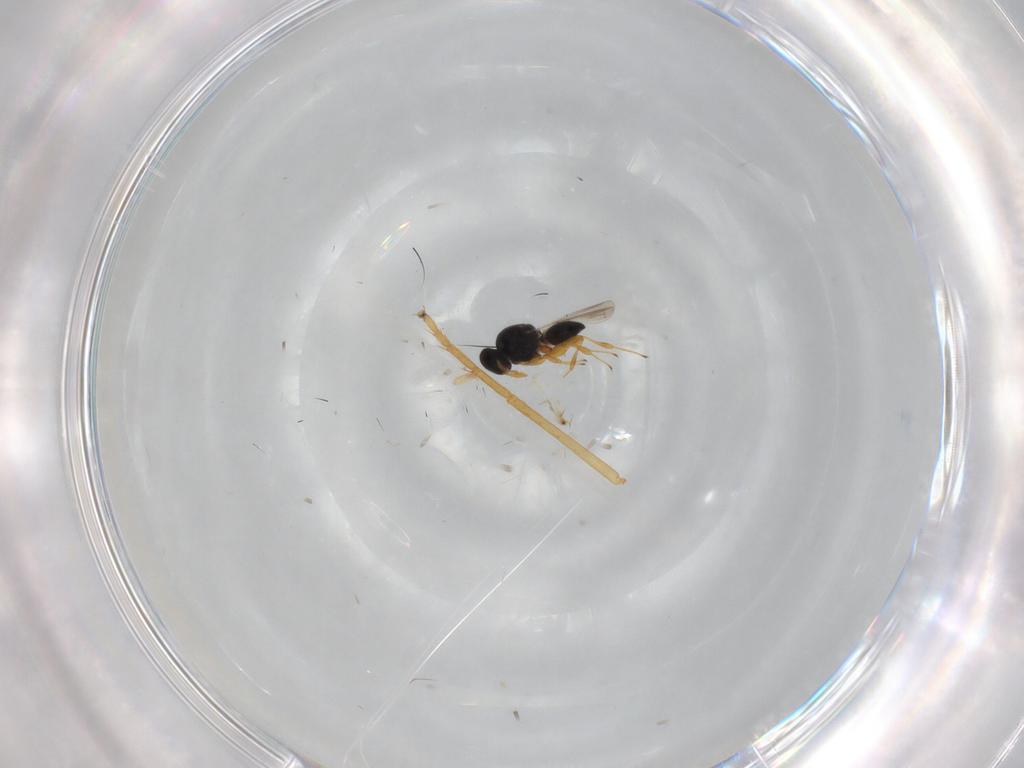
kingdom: Animalia
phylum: Arthropoda
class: Insecta
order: Hymenoptera
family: Platygastridae
